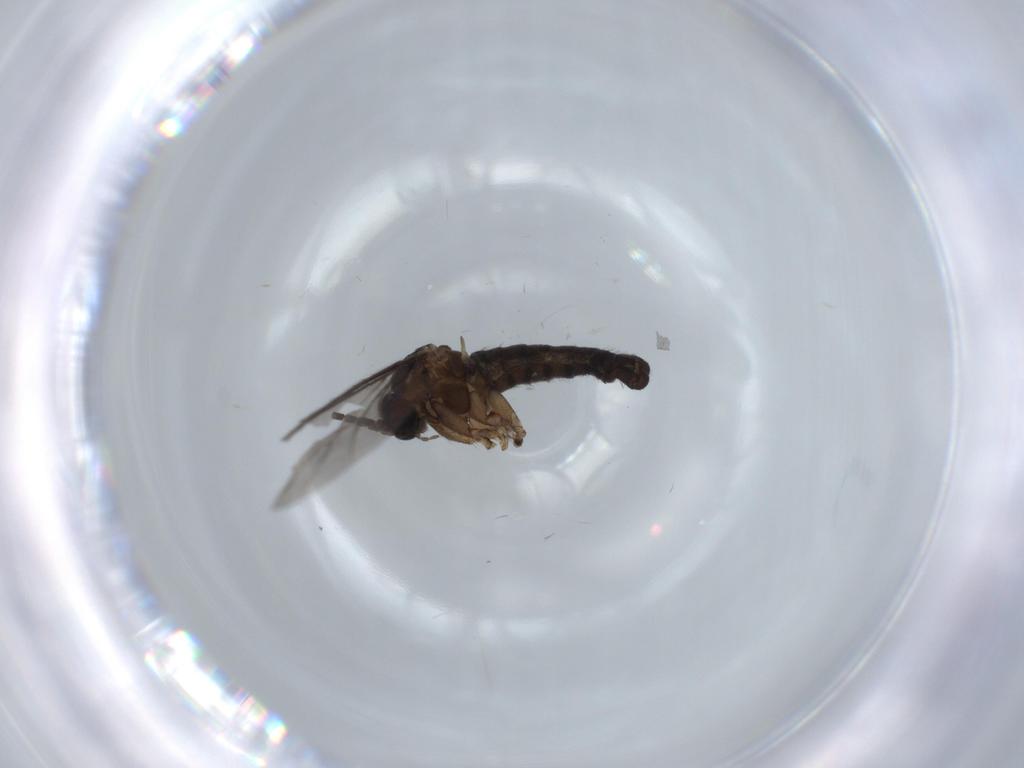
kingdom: Animalia
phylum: Arthropoda
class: Insecta
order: Diptera
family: Sciaridae
